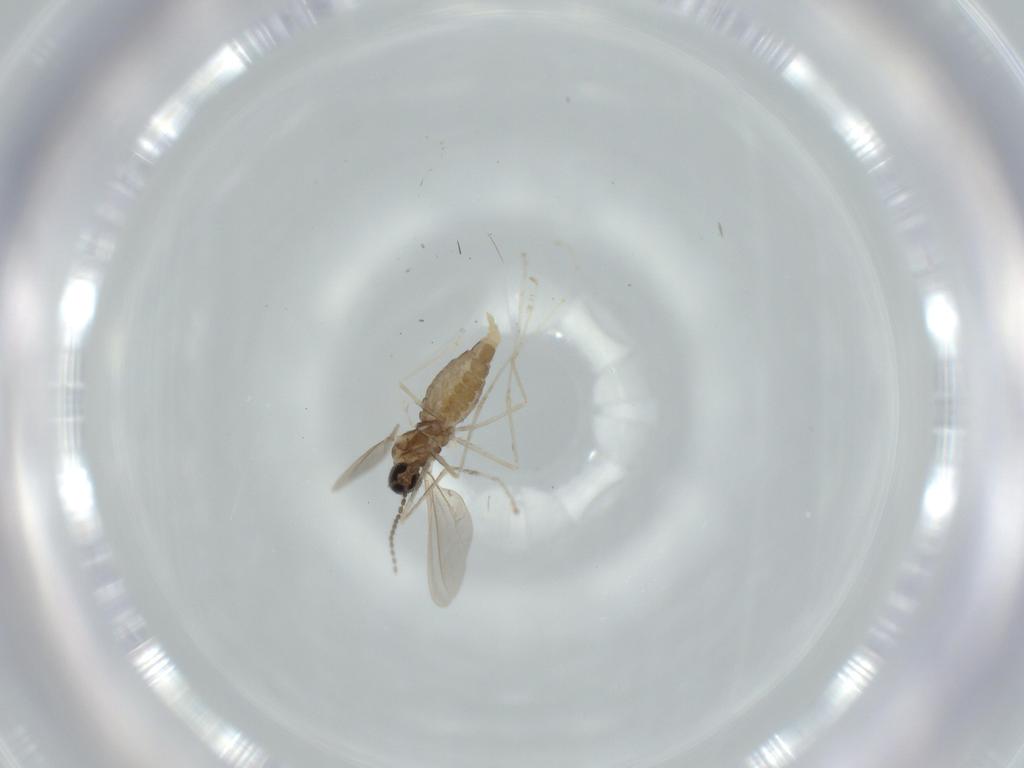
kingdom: Animalia
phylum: Arthropoda
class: Insecta
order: Diptera
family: Cecidomyiidae
